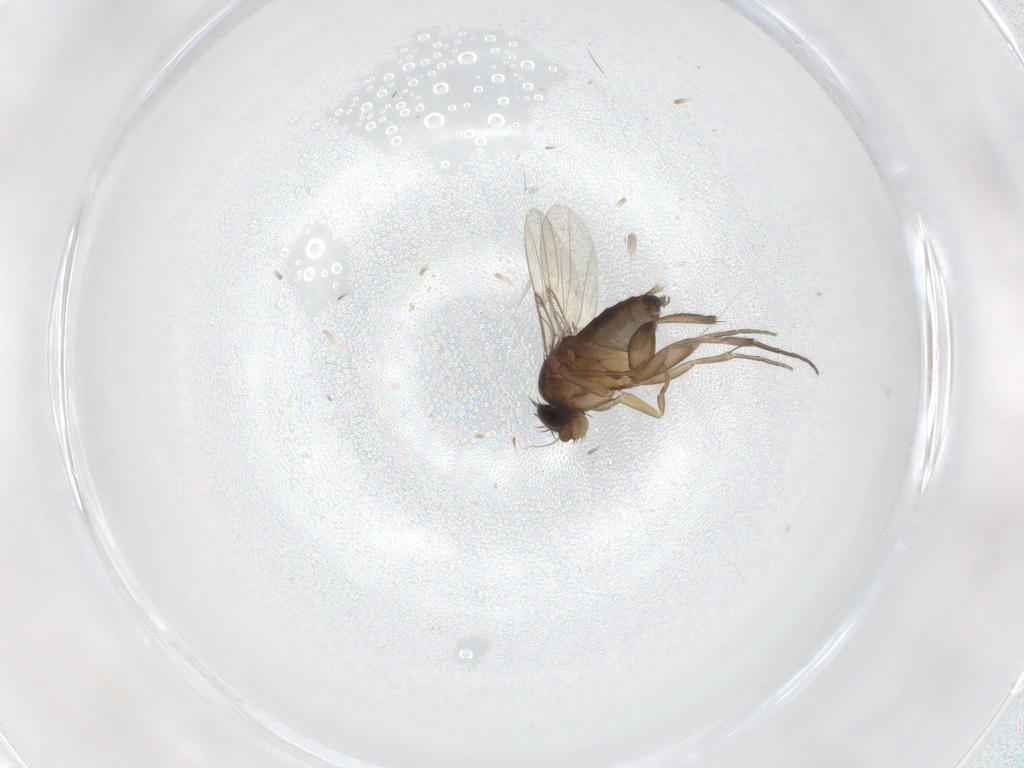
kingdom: Animalia
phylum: Arthropoda
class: Insecta
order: Diptera
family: Phoridae
